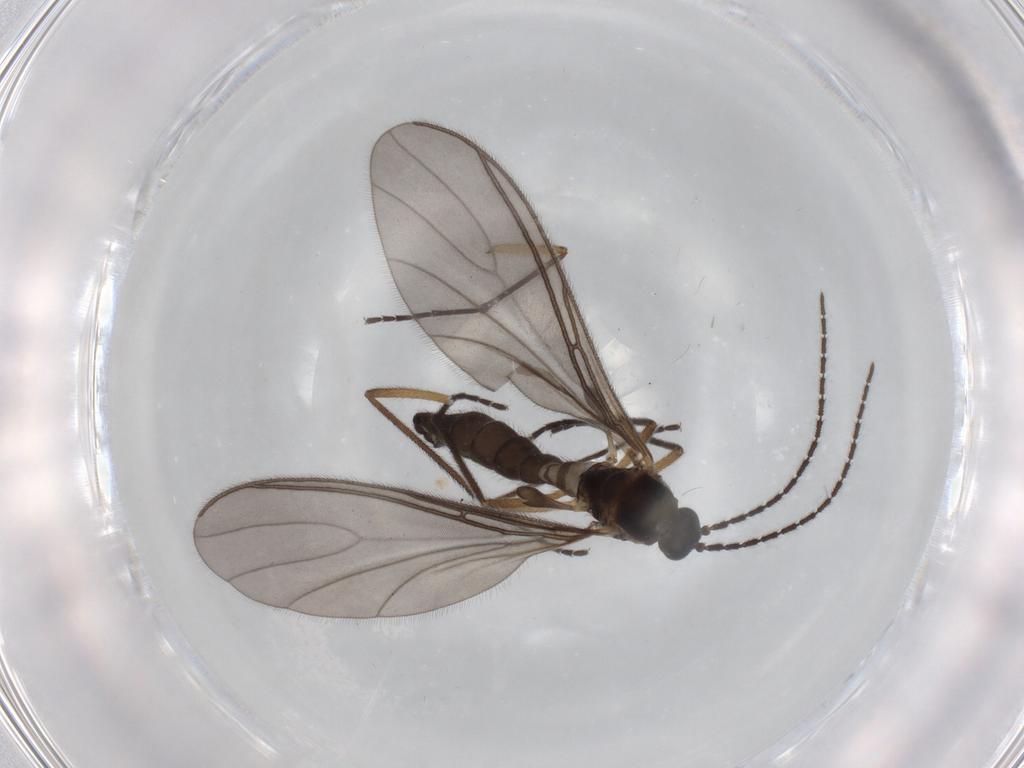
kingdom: Animalia
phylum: Arthropoda
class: Insecta
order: Diptera
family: Sciaridae
